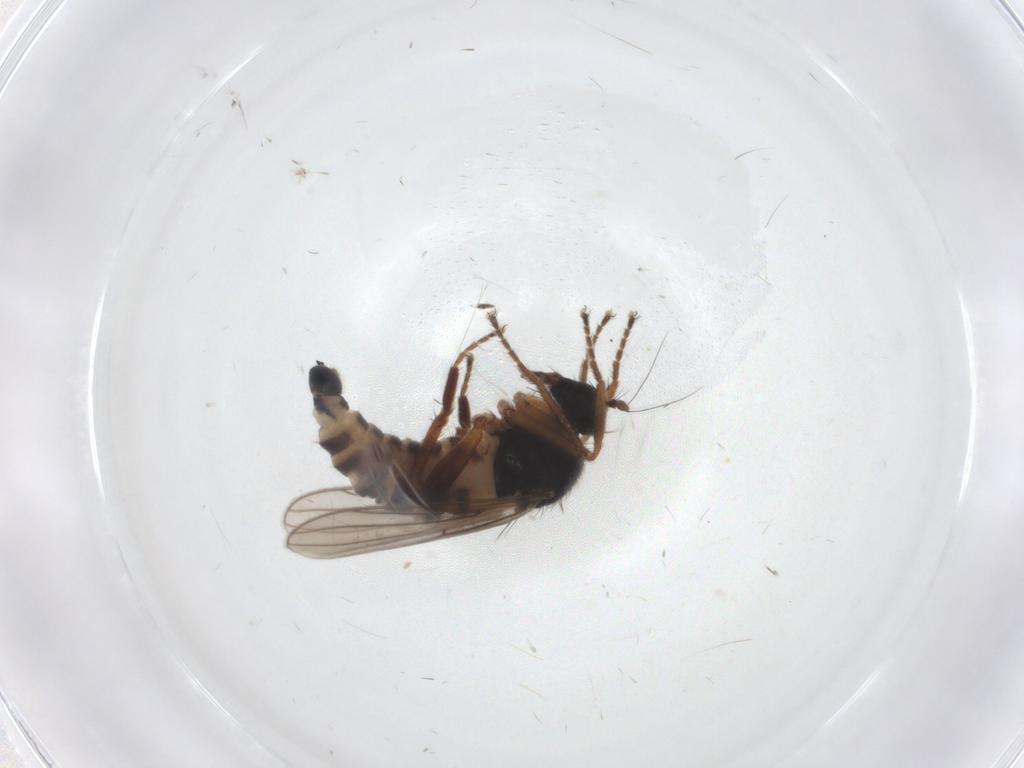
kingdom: Animalia
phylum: Arthropoda
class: Insecta
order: Diptera
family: Hybotidae
